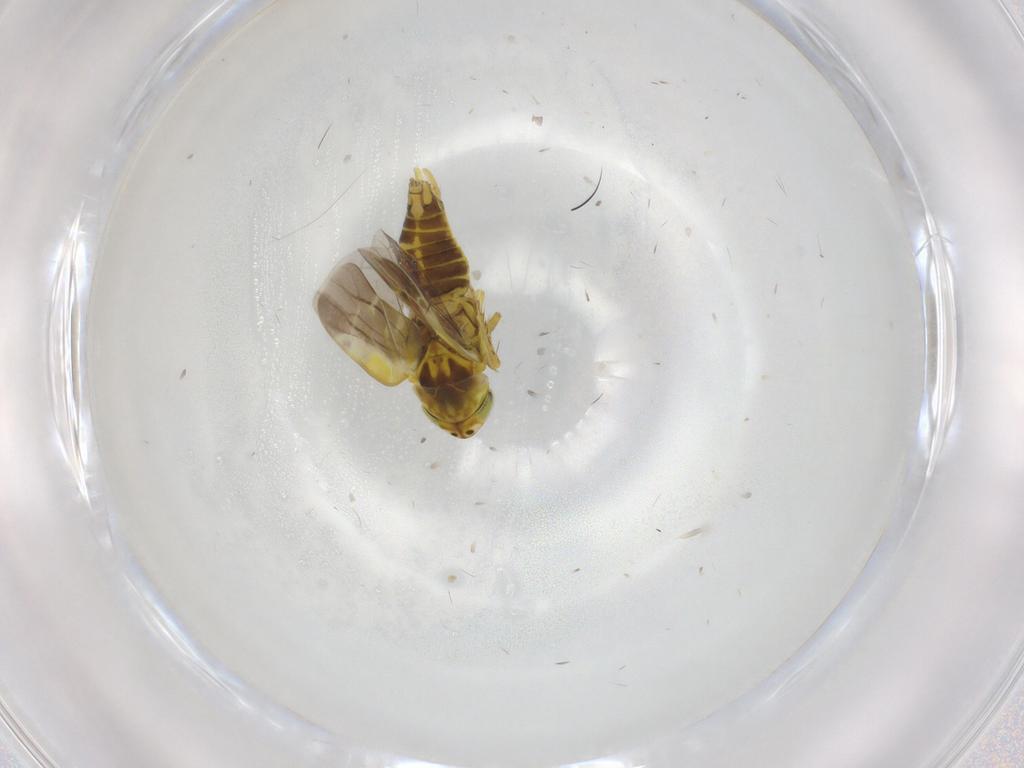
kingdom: Animalia
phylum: Arthropoda
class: Insecta
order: Hemiptera
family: Cicadellidae
